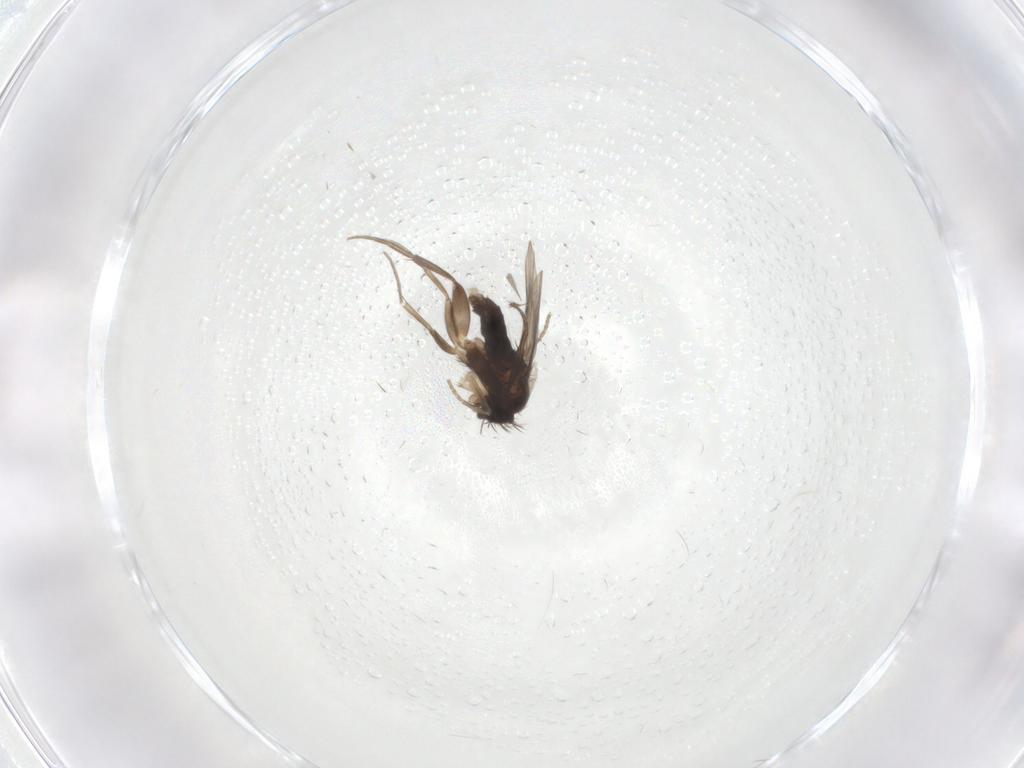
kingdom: Animalia
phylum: Arthropoda
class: Insecta
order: Diptera
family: Phoridae
